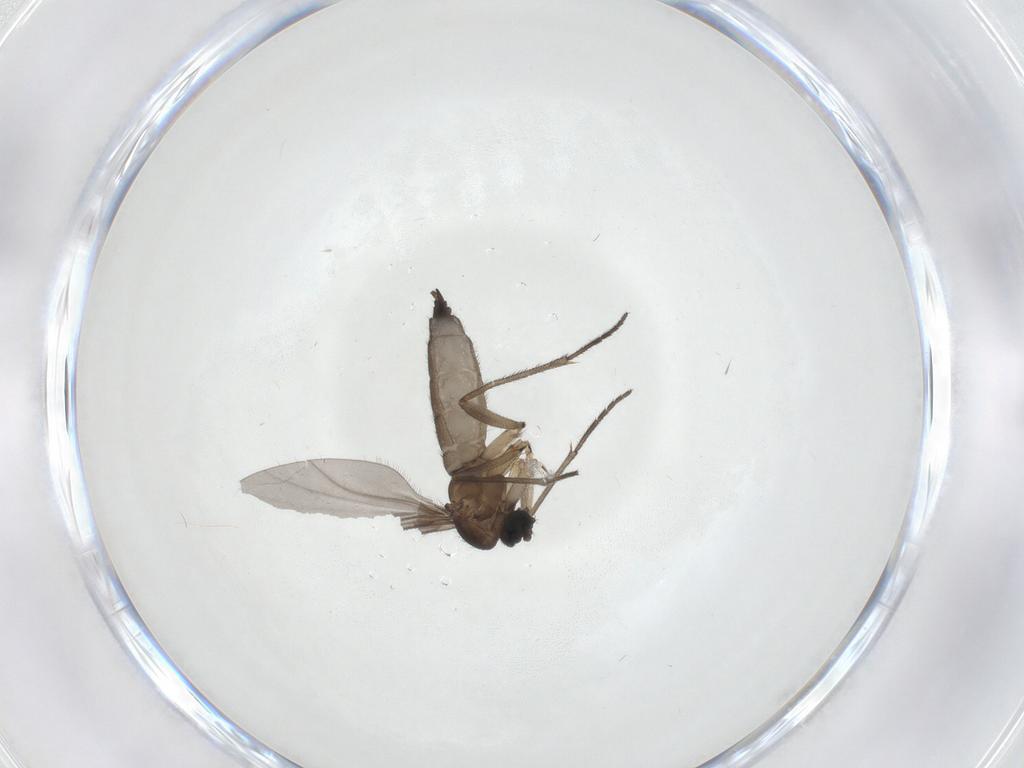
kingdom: Animalia
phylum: Arthropoda
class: Insecta
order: Diptera
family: Sciaridae
